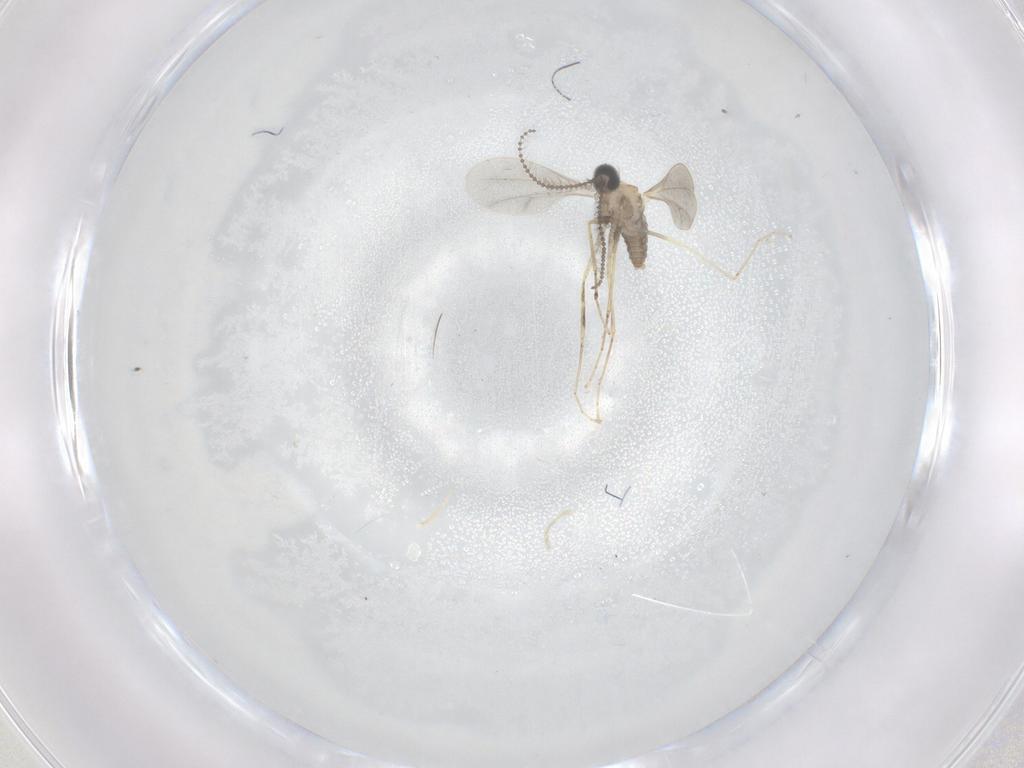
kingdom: Animalia
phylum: Arthropoda
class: Insecta
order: Diptera
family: Cecidomyiidae
